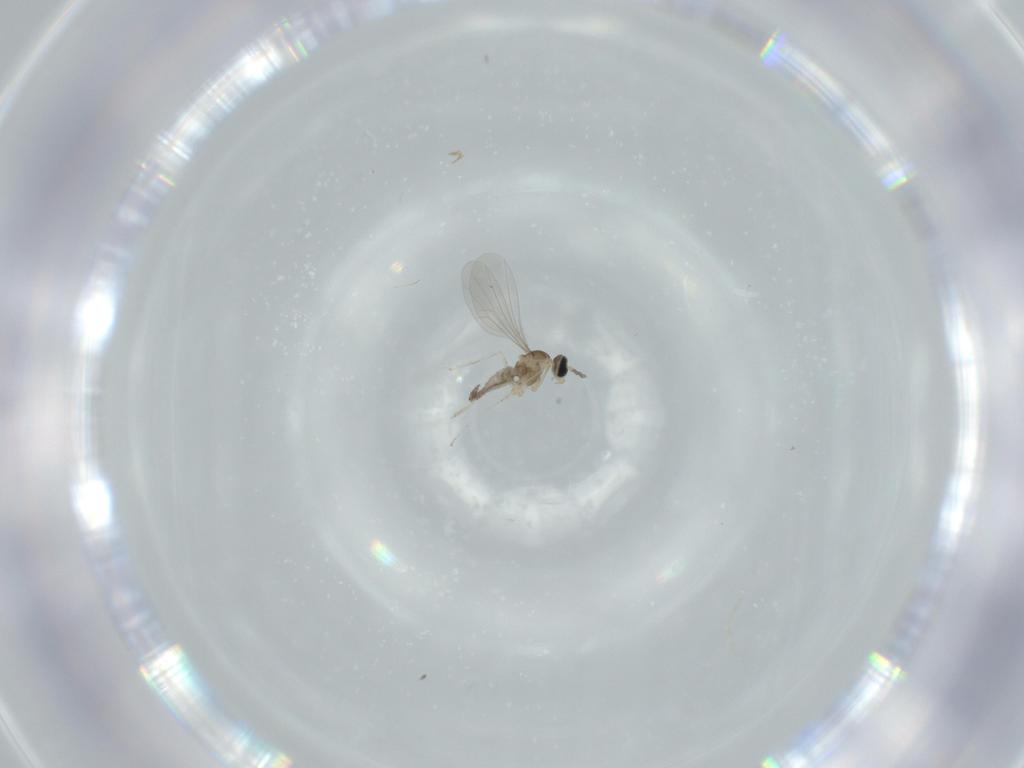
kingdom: Animalia
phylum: Arthropoda
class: Insecta
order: Diptera
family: Cecidomyiidae
